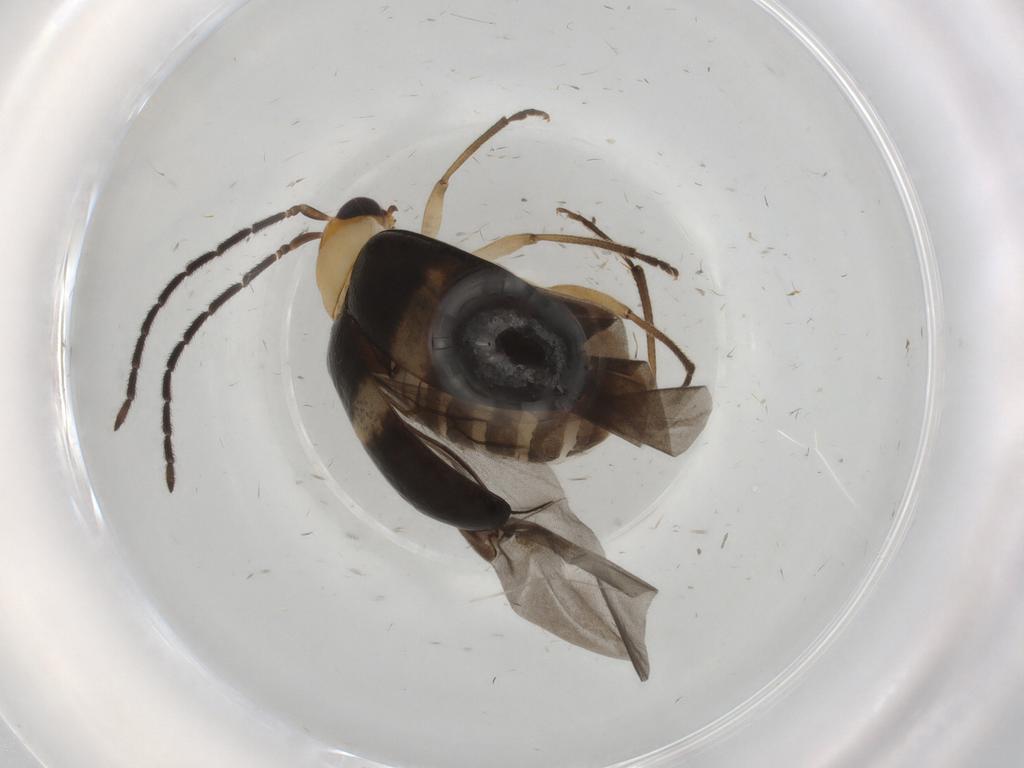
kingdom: Animalia
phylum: Arthropoda
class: Insecta
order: Coleoptera
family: Chrysomelidae
